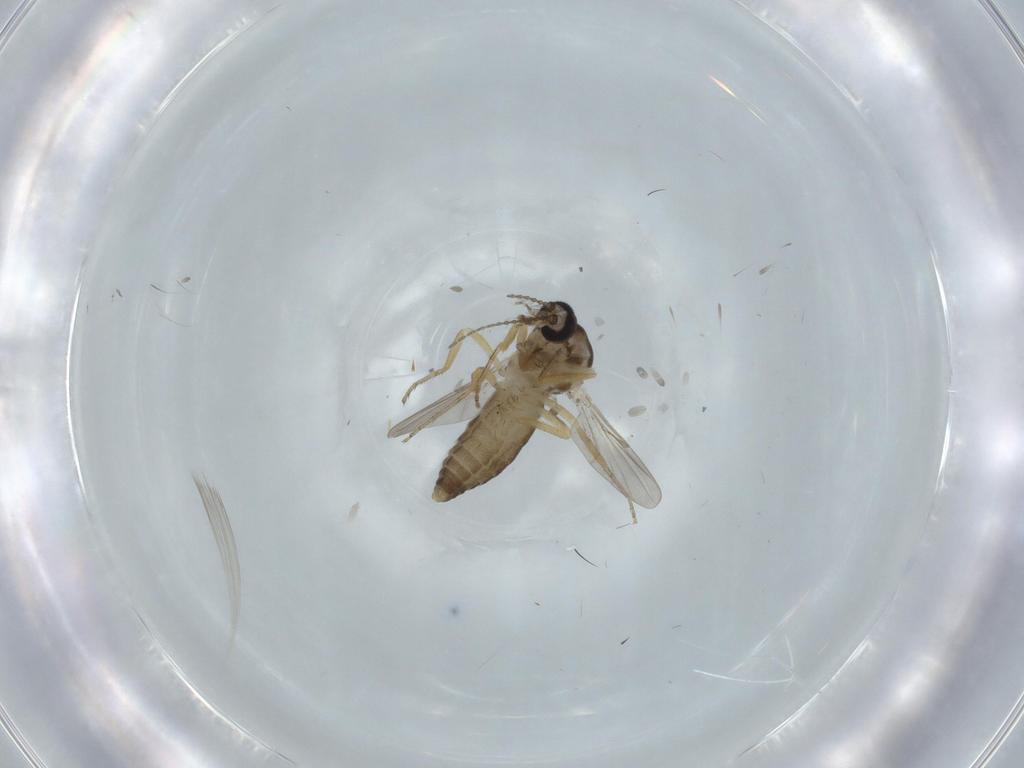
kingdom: Animalia
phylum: Arthropoda
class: Insecta
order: Diptera
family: Ceratopogonidae
